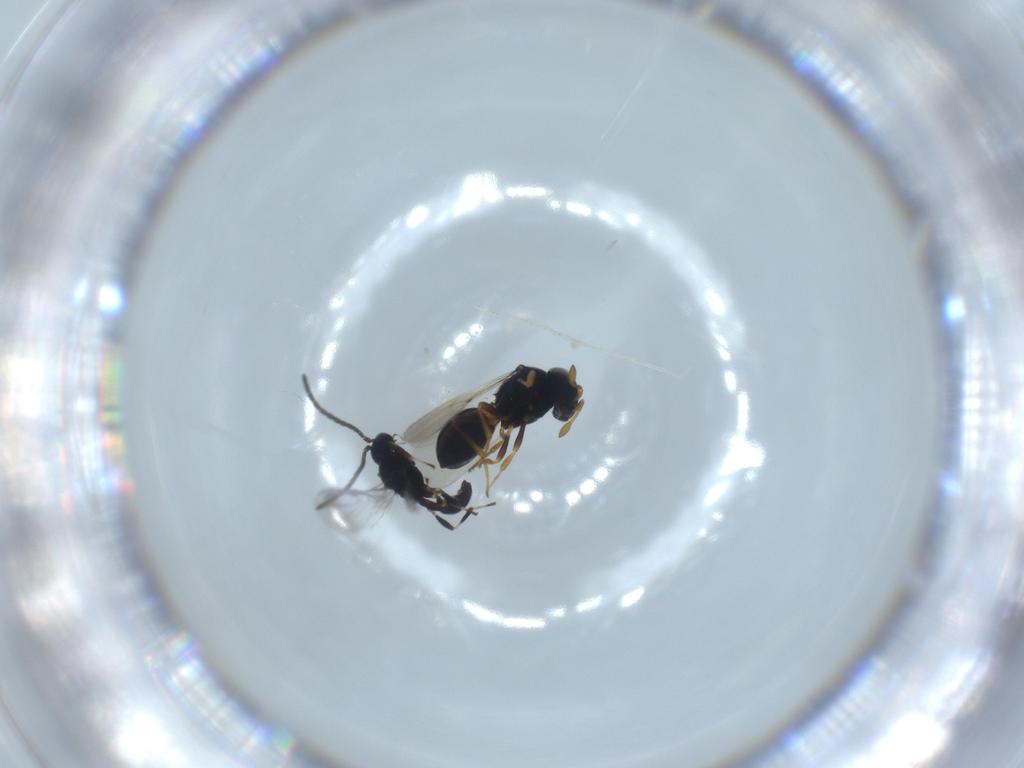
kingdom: Animalia
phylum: Arthropoda
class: Insecta
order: Hymenoptera
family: Scelionidae
